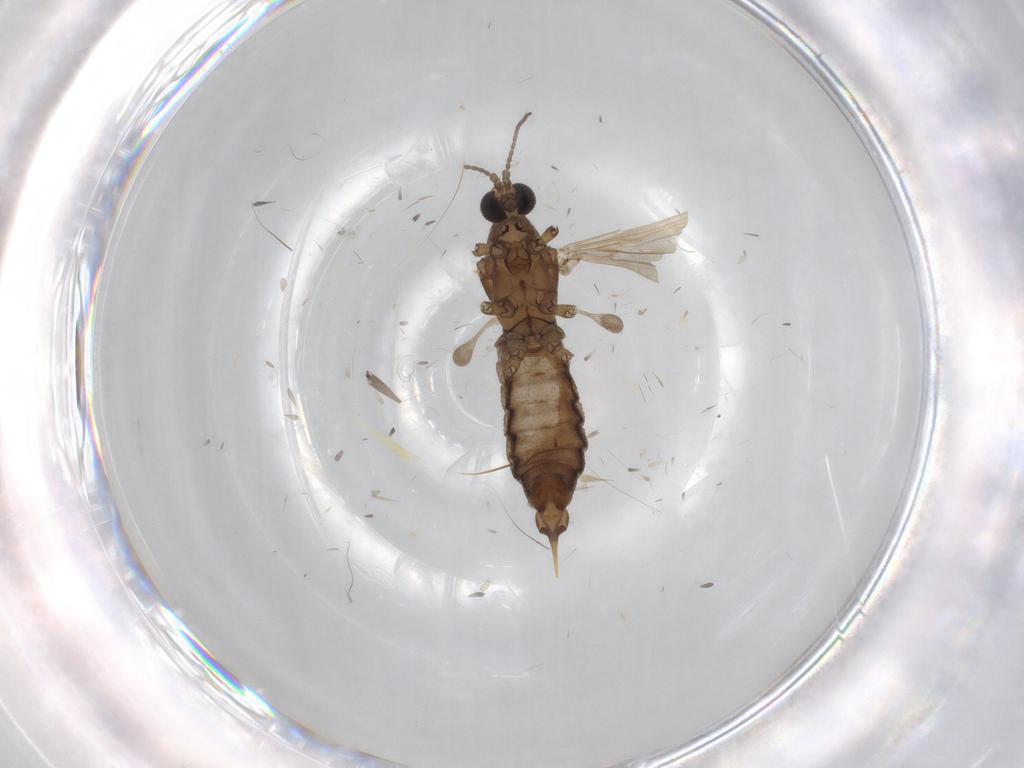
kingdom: Animalia
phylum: Arthropoda
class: Insecta
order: Diptera
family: Limoniidae
